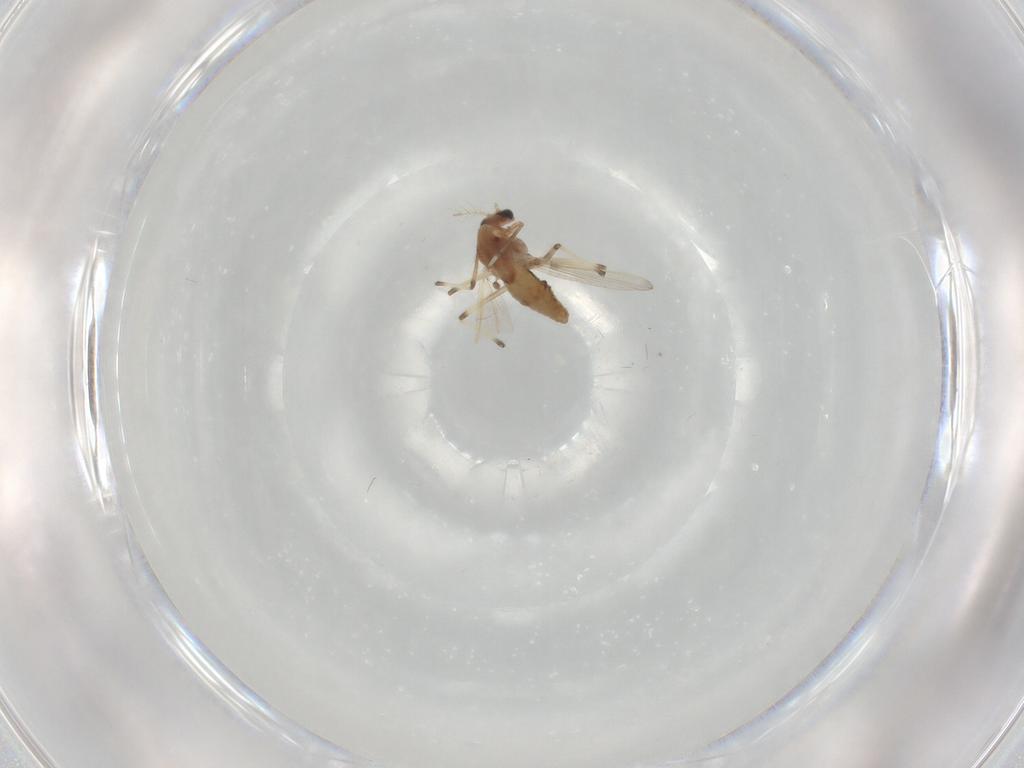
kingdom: Animalia
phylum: Arthropoda
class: Insecta
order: Diptera
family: Chironomidae
